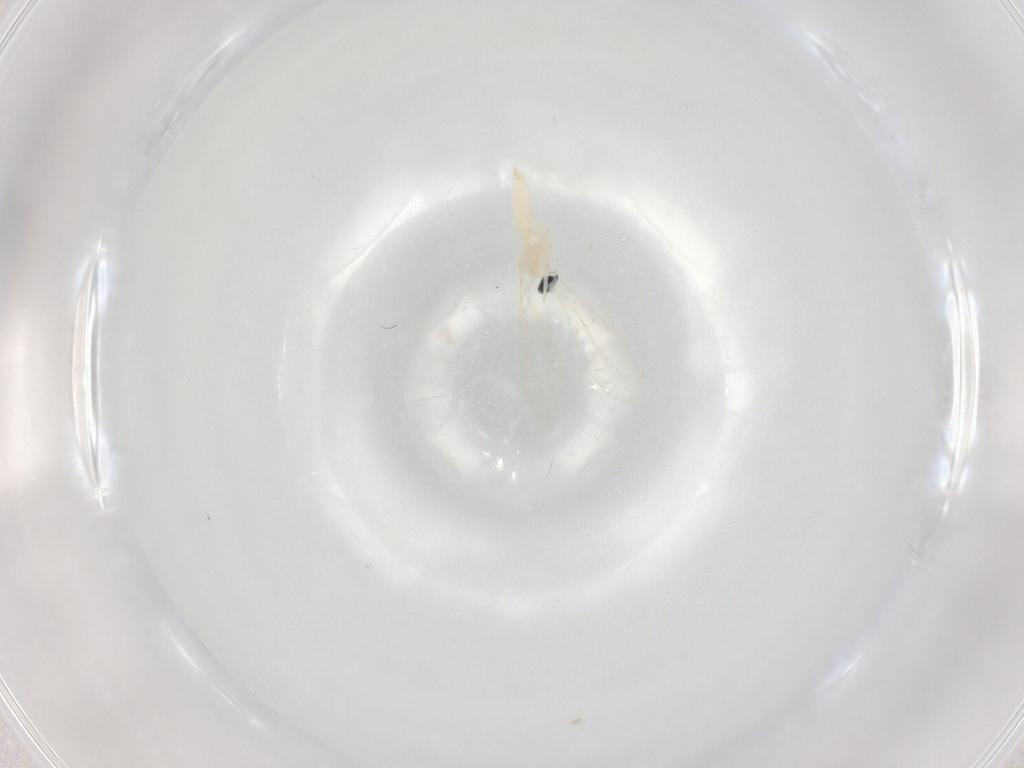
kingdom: Animalia
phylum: Arthropoda
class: Insecta
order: Diptera
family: Cecidomyiidae
